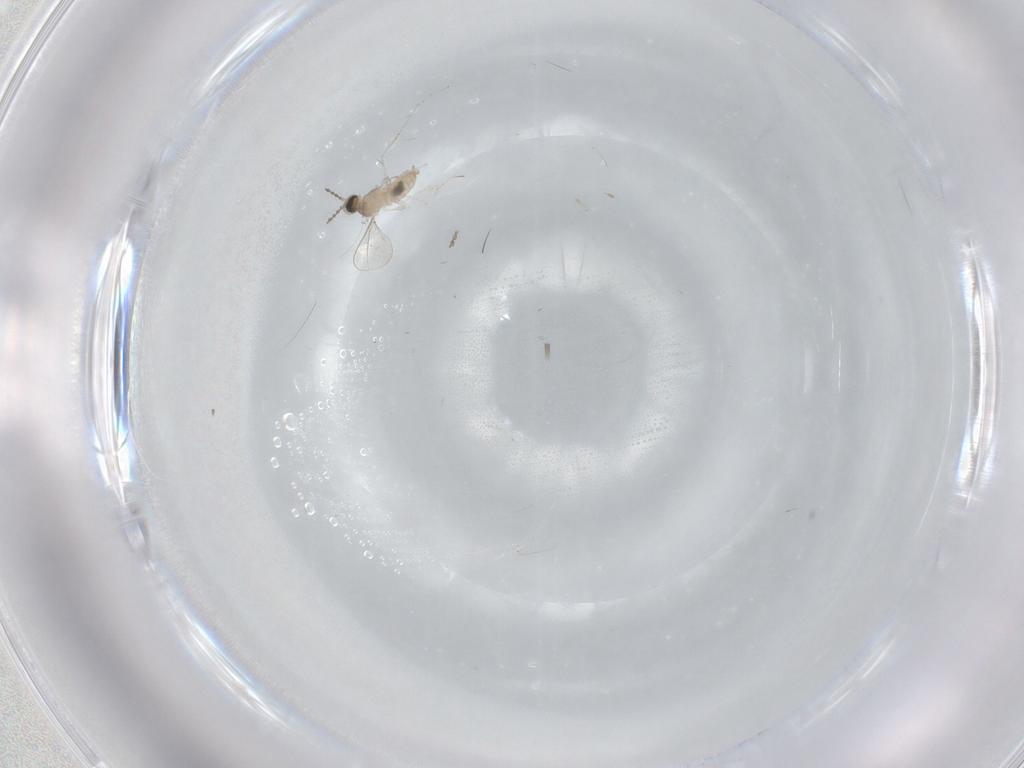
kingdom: Animalia
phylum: Arthropoda
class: Insecta
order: Diptera
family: Cecidomyiidae
